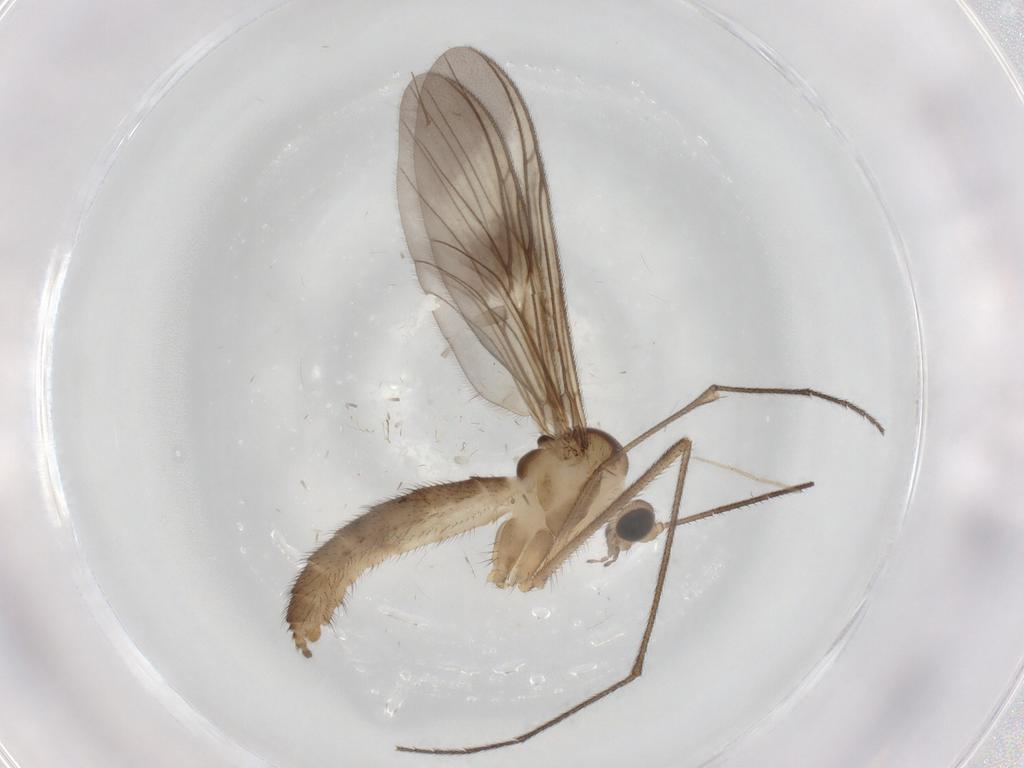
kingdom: Animalia
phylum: Arthropoda
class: Insecta
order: Diptera
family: Chironomidae
